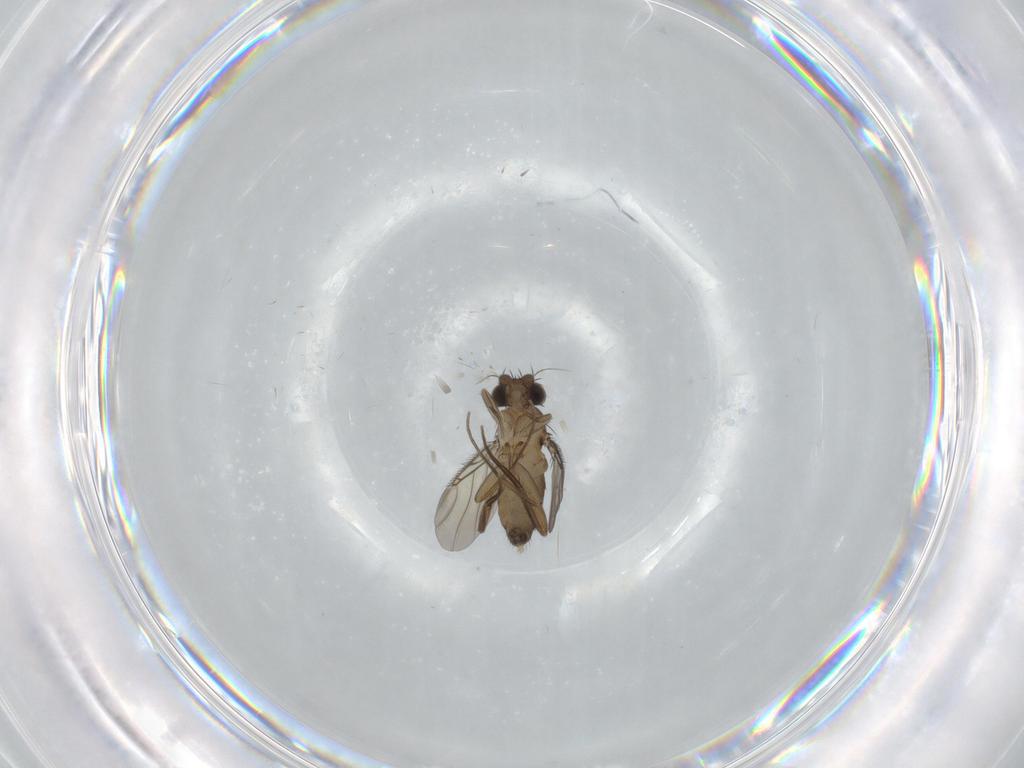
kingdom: Animalia
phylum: Arthropoda
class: Insecta
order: Diptera
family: Phoridae
